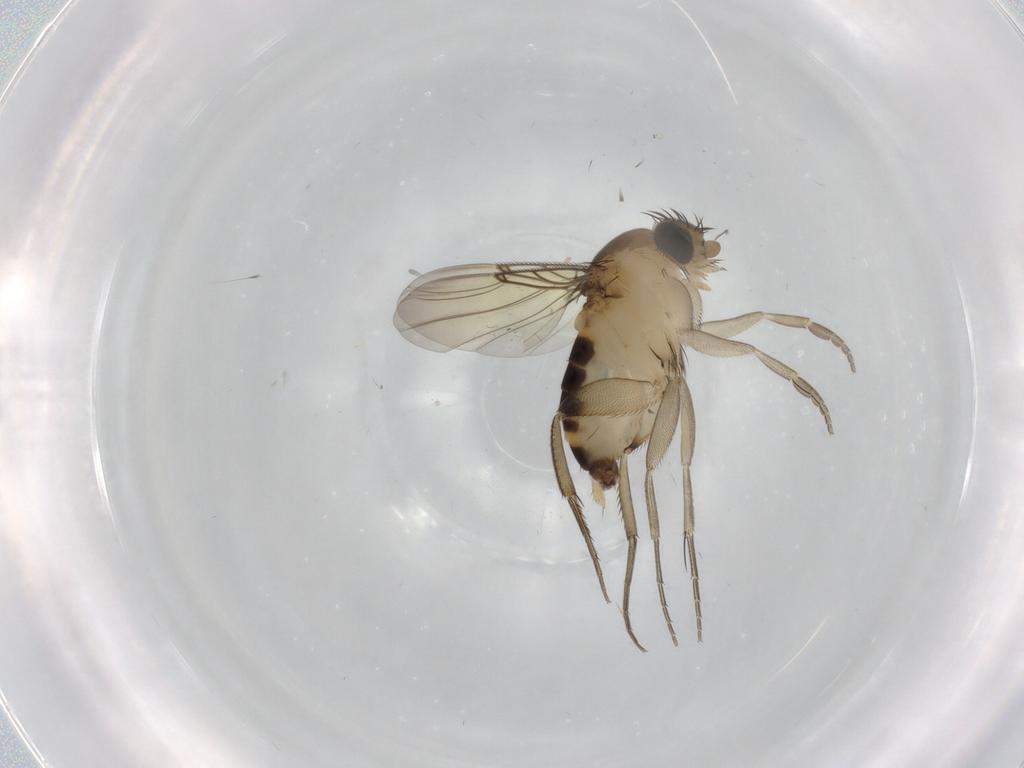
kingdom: Animalia
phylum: Arthropoda
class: Insecta
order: Diptera
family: Phoridae
